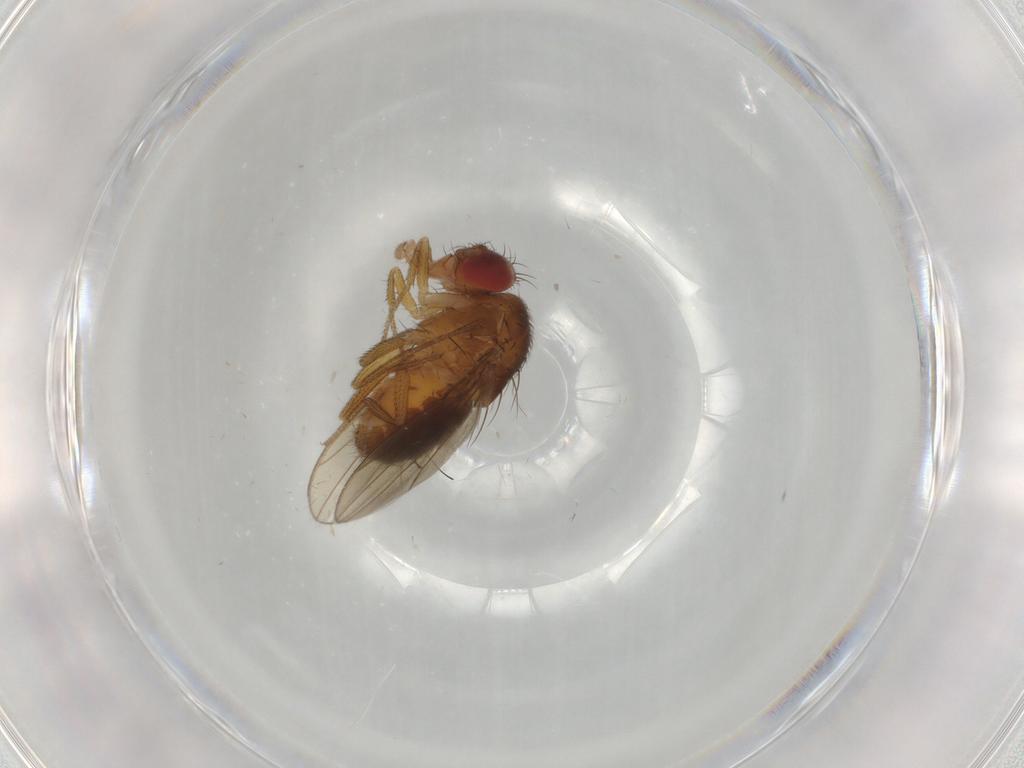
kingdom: Animalia
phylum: Arthropoda
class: Insecta
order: Diptera
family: Drosophilidae
